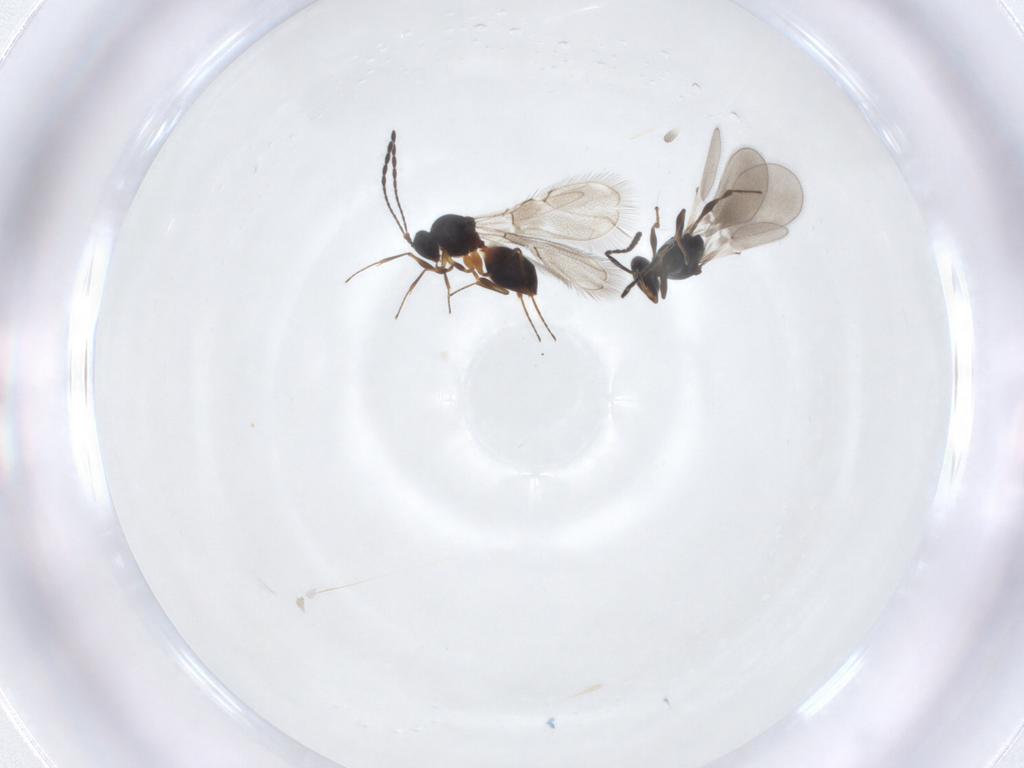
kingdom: Animalia
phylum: Arthropoda
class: Insecta
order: Hymenoptera
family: Platygastridae
